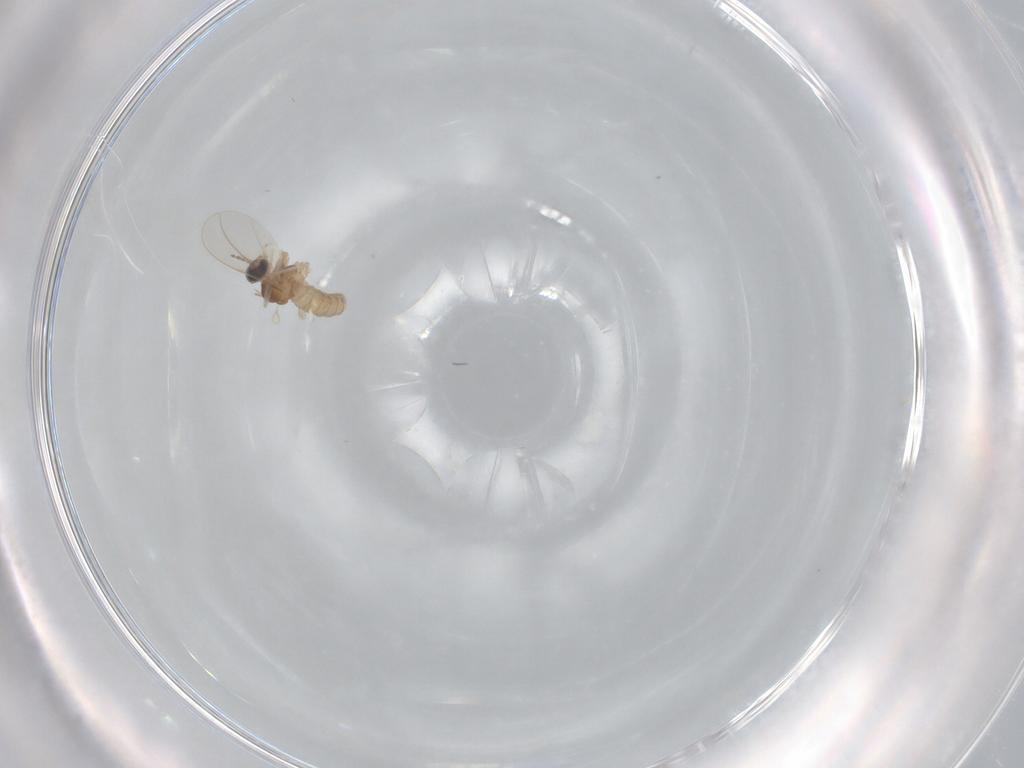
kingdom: Animalia
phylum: Arthropoda
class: Insecta
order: Diptera
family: Cecidomyiidae
